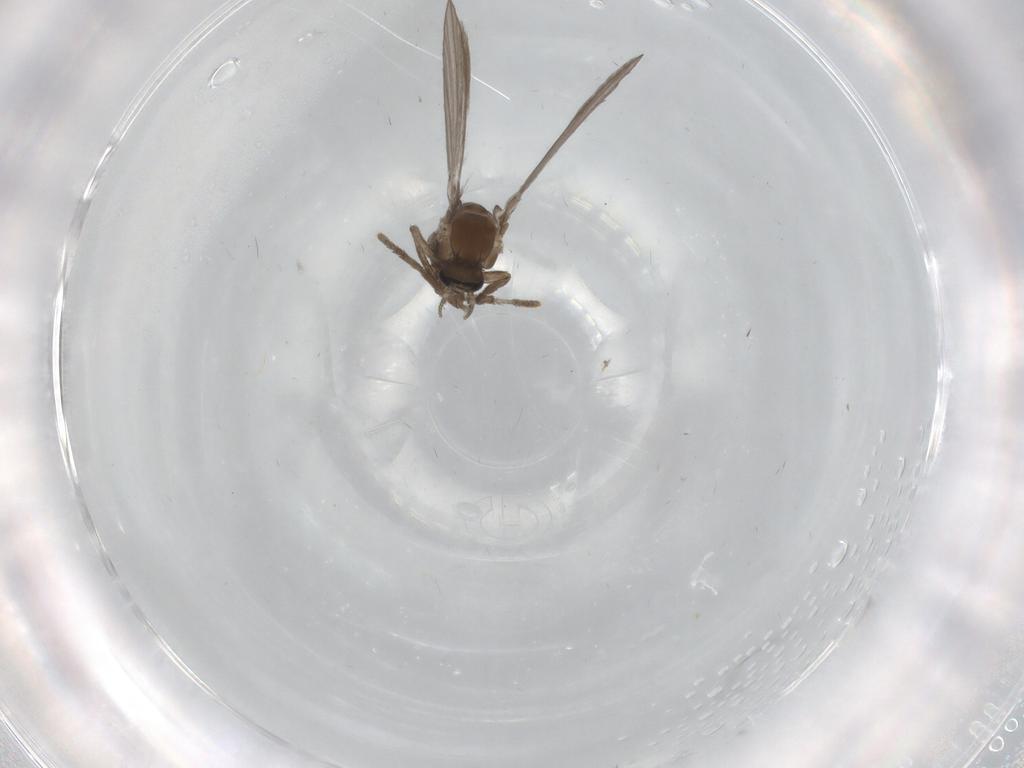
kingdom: Animalia
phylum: Arthropoda
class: Insecta
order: Diptera
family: Psychodidae
